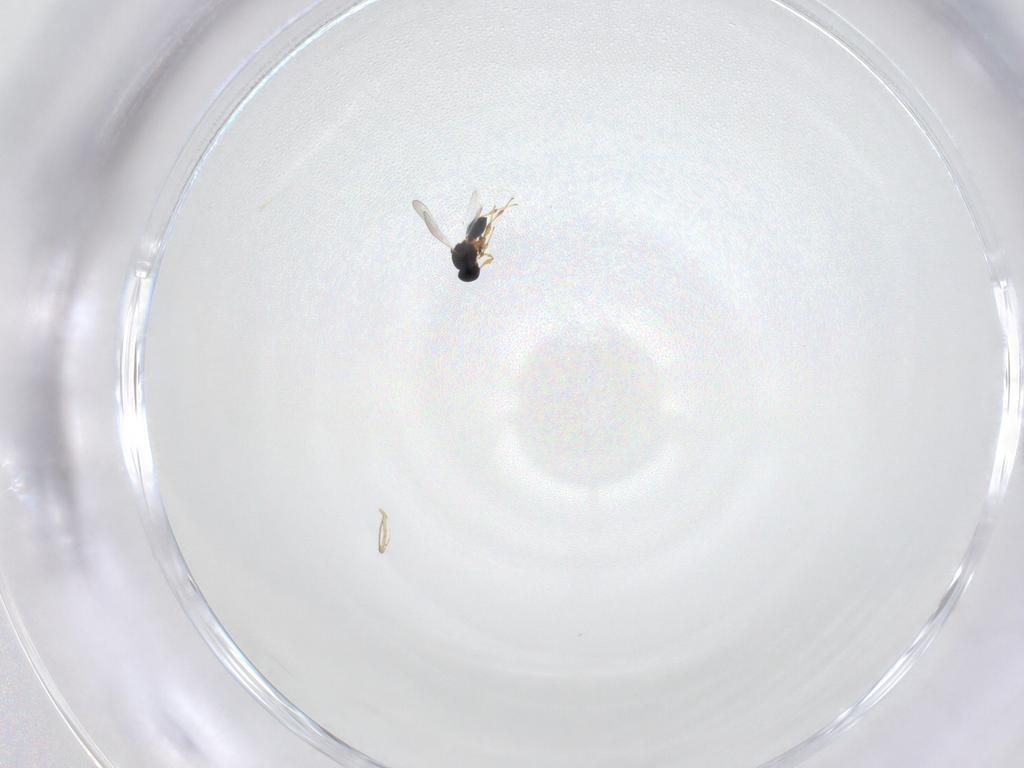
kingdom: Animalia
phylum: Arthropoda
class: Insecta
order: Hymenoptera
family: Platygastridae
